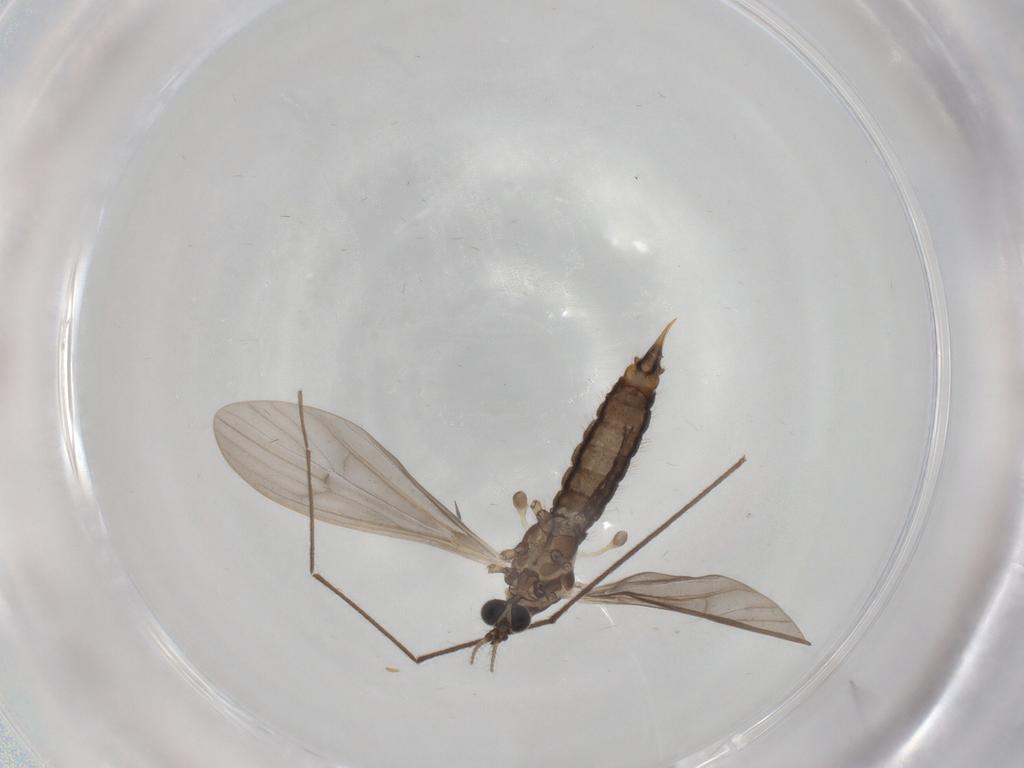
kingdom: Animalia
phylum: Arthropoda
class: Insecta
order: Diptera
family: Limoniidae
